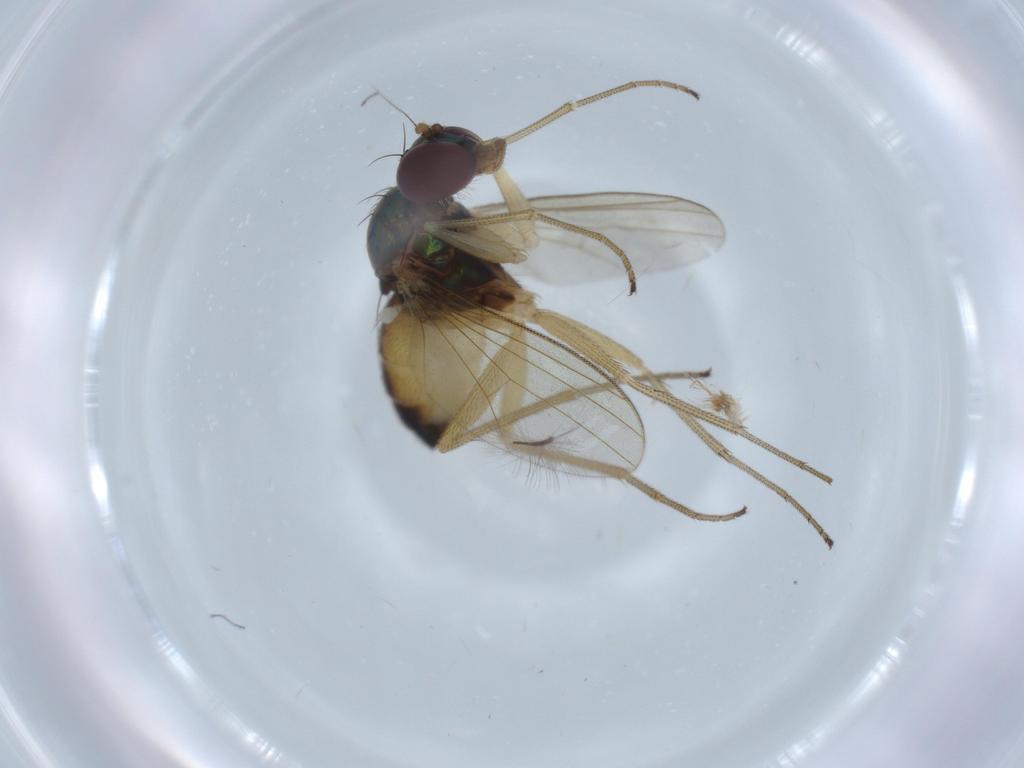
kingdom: Animalia
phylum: Arthropoda
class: Insecta
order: Diptera
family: Dolichopodidae
